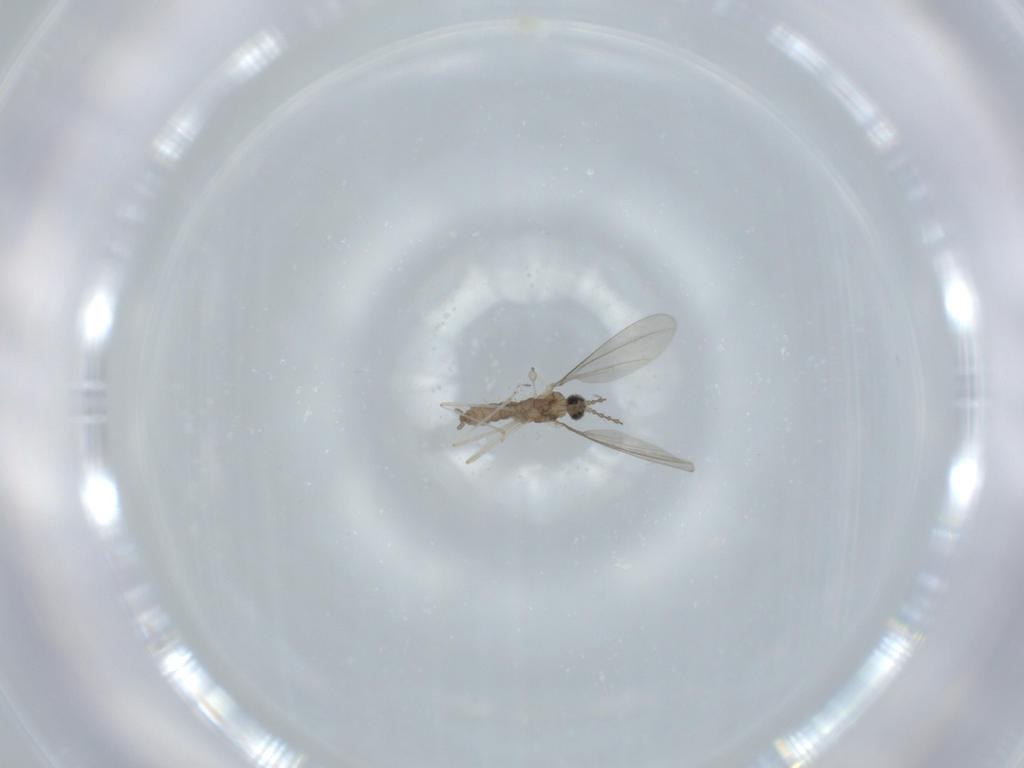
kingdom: Animalia
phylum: Arthropoda
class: Insecta
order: Diptera
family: Cecidomyiidae
